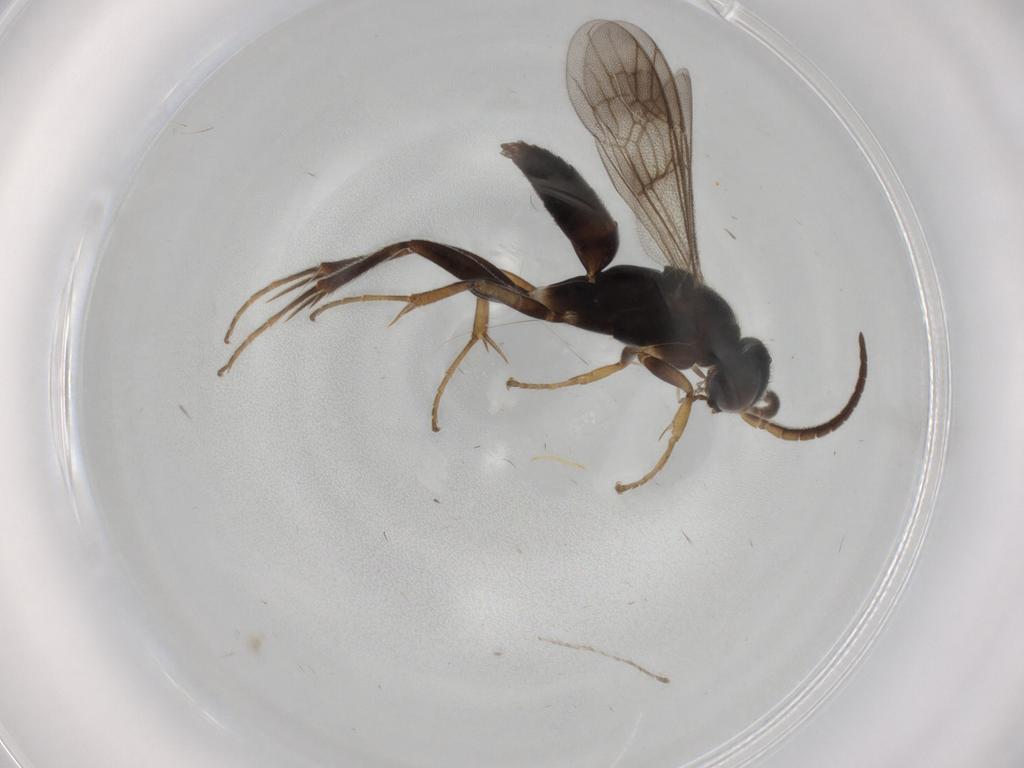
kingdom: Animalia
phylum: Arthropoda
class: Insecta
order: Hymenoptera
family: Pompilidae
